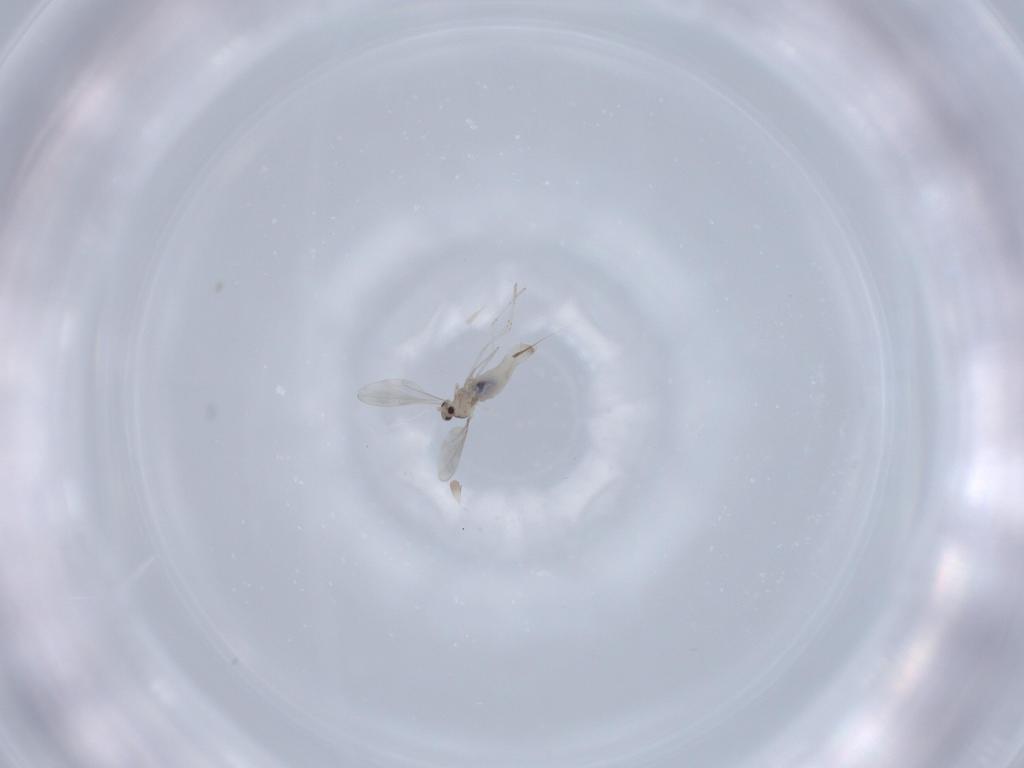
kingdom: Animalia
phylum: Arthropoda
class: Insecta
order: Diptera
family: Cecidomyiidae
